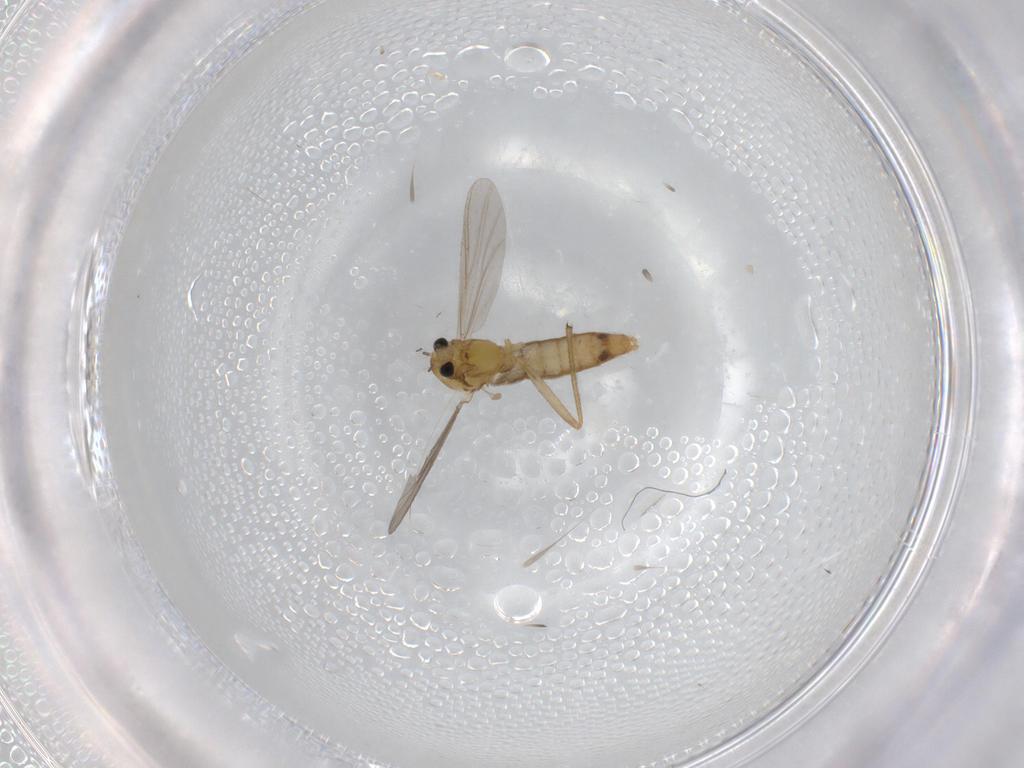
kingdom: Animalia
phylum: Arthropoda
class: Insecta
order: Diptera
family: Chironomidae
